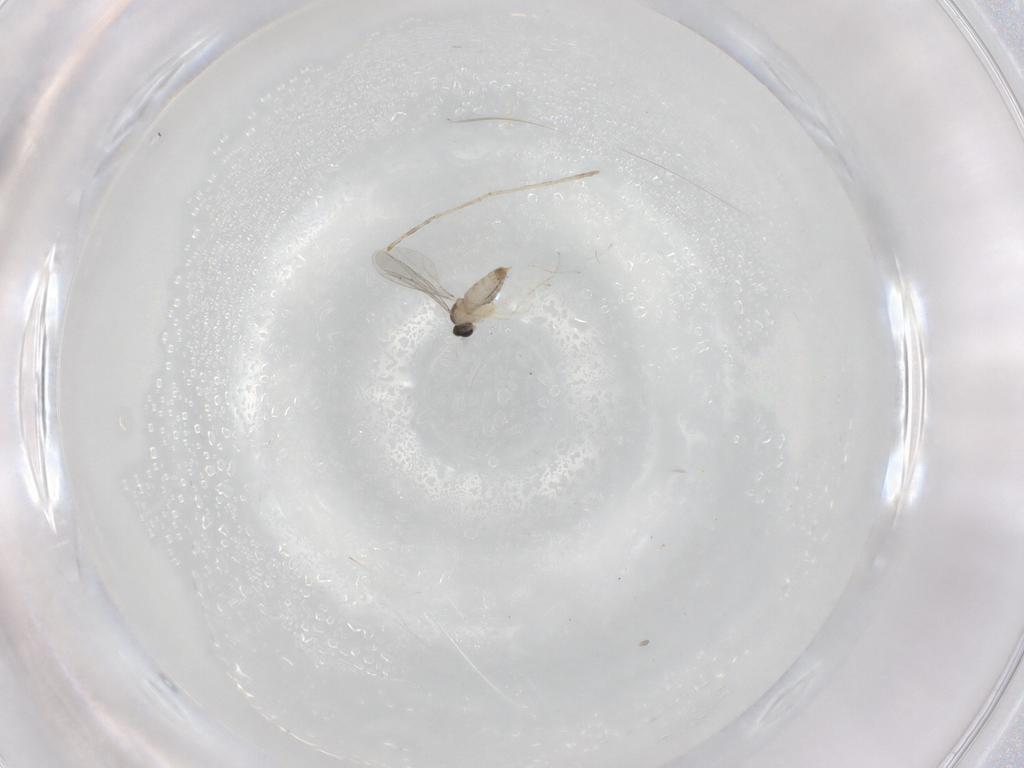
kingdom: Animalia
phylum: Arthropoda
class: Insecta
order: Diptera
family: Cecidomyiidae
